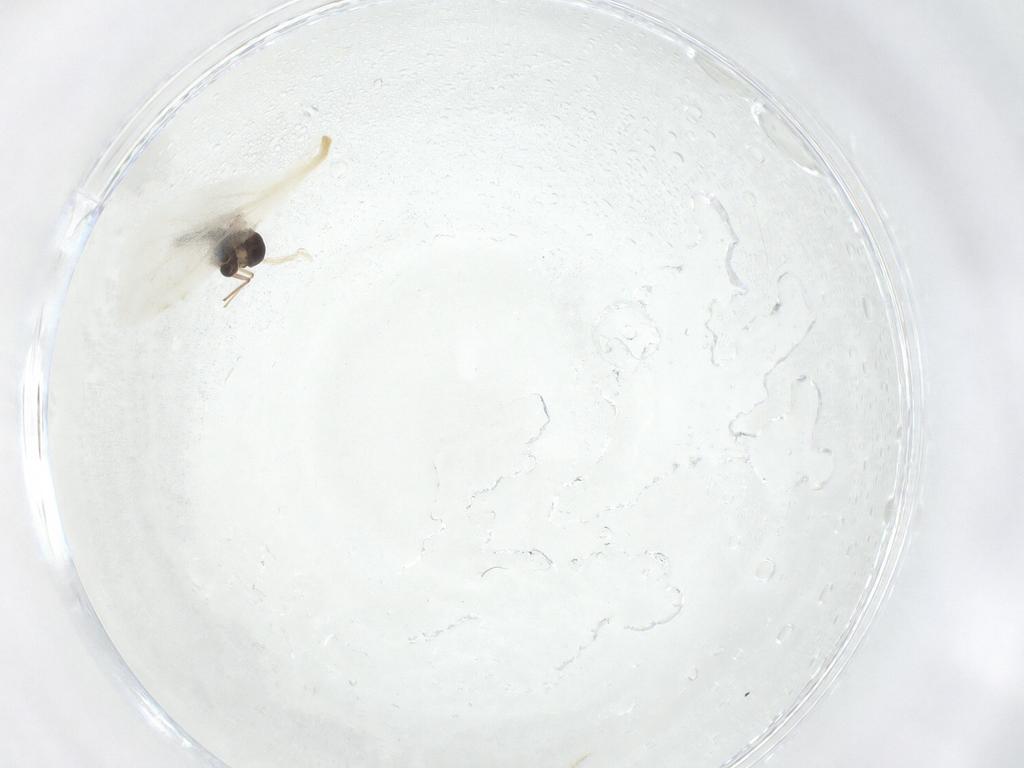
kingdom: Animalia
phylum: Arthropoda
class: Insecta
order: Diptera
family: Chironomidae
